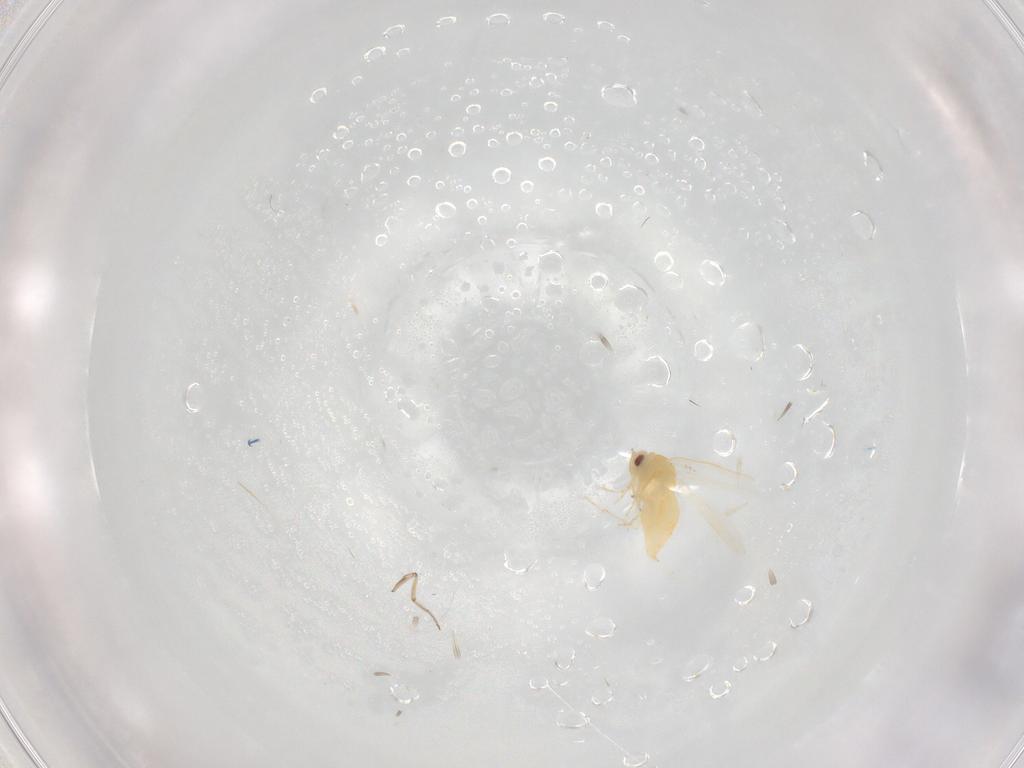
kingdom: Animalia
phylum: Arthropoda
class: Insecta
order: Hemiptera
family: Aleyrodidae
